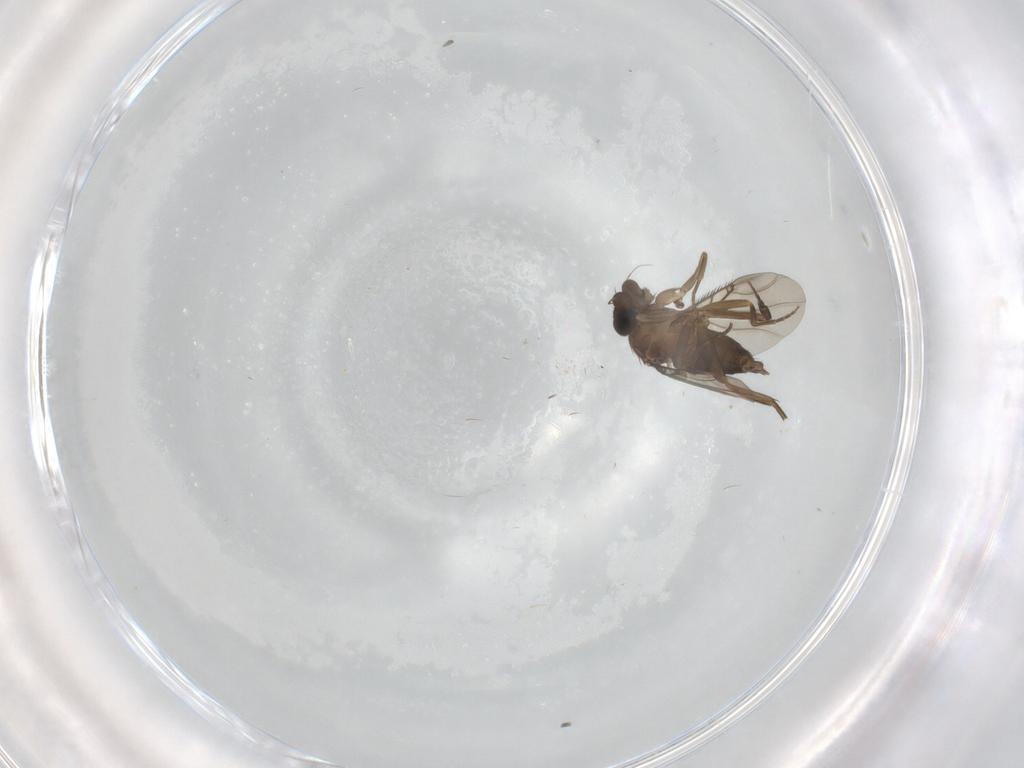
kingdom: Animalia
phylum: Arthropoda
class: Insecta
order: Diptera
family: Phoridae
